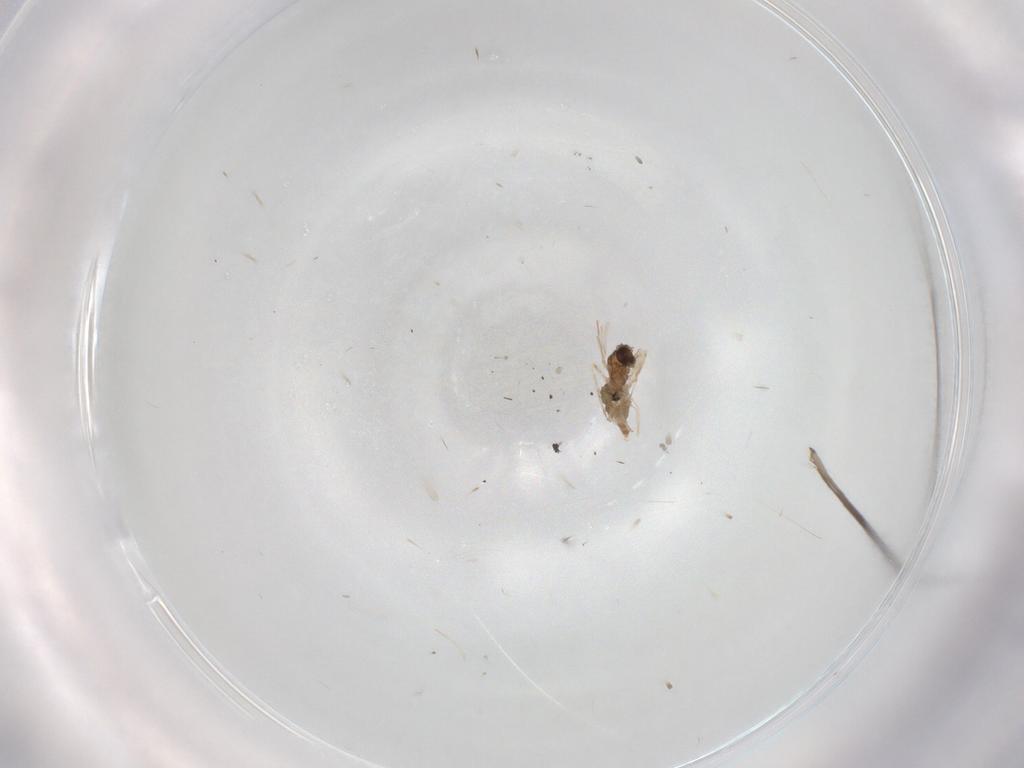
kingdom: Animalia
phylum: Arthropoda
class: Insecta
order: Diptera
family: Cecidomyiidae
